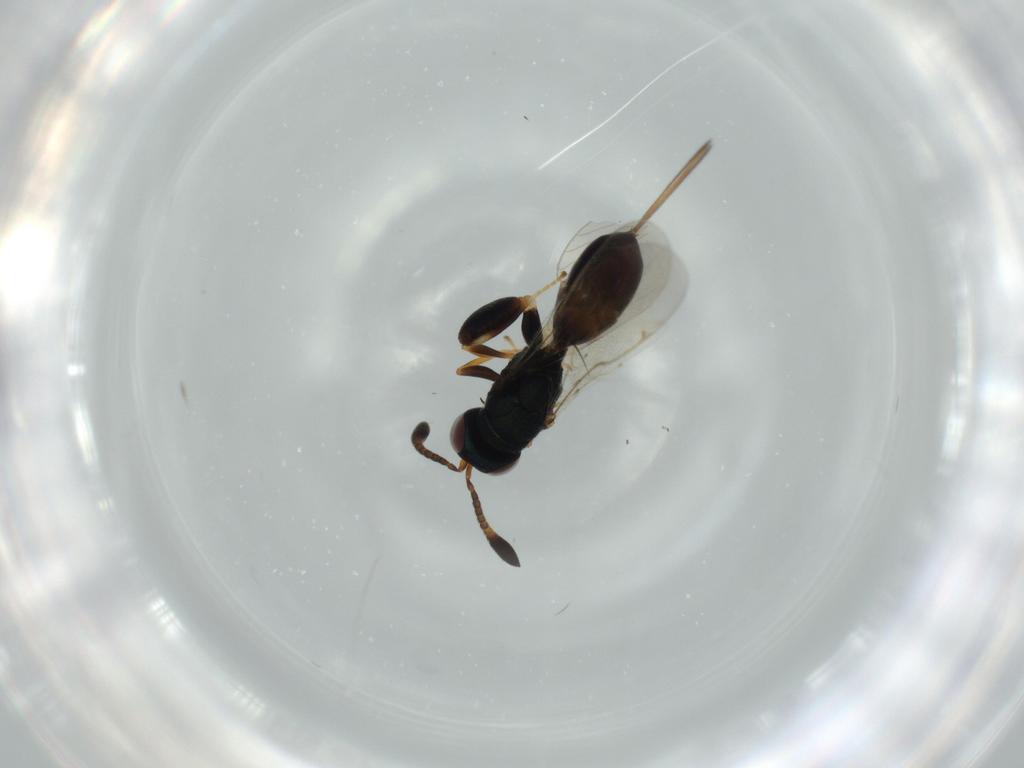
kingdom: Animalia
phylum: Arthropoda
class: Insecta
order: Hymenoptera
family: Torymidae
